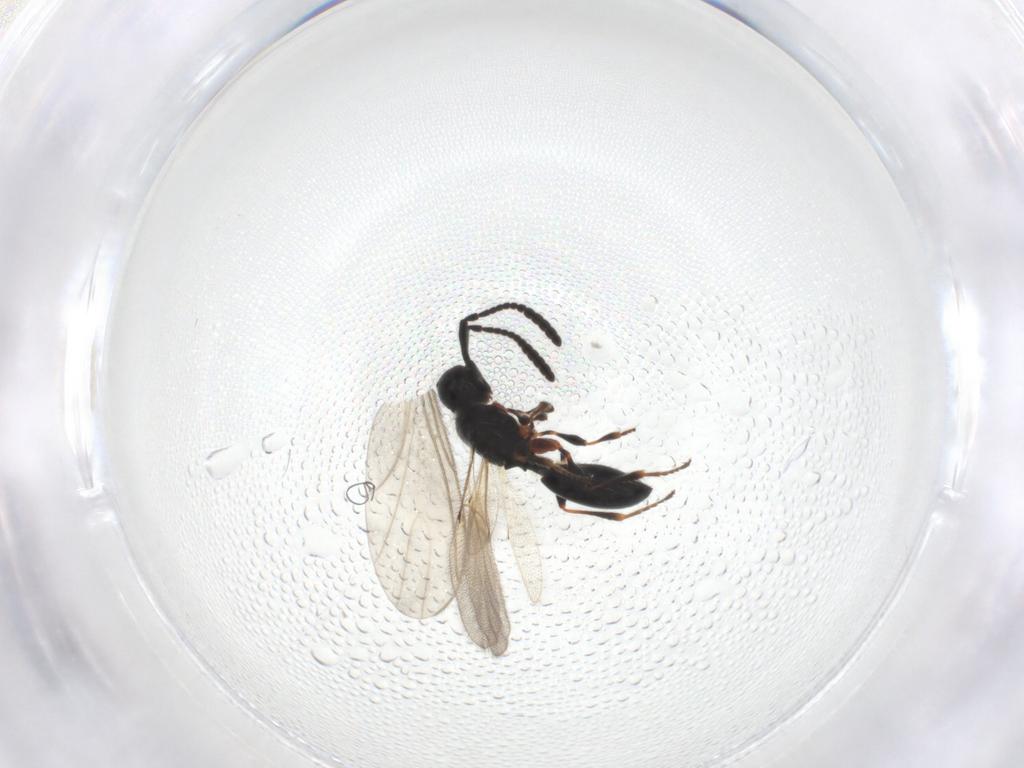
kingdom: Animalia
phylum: Arthropoda
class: Insecta
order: Hymenoptera
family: Diapriidae
